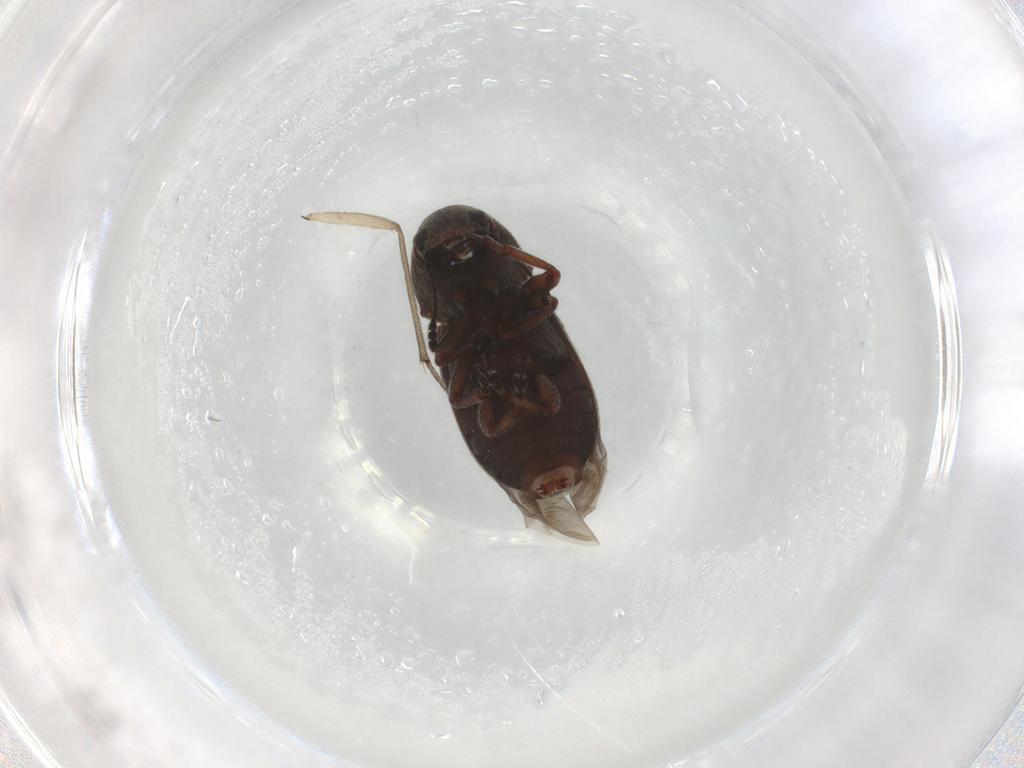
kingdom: Animalia
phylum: Arthropoda
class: Insecta
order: Coleoptera
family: Anthribidae
